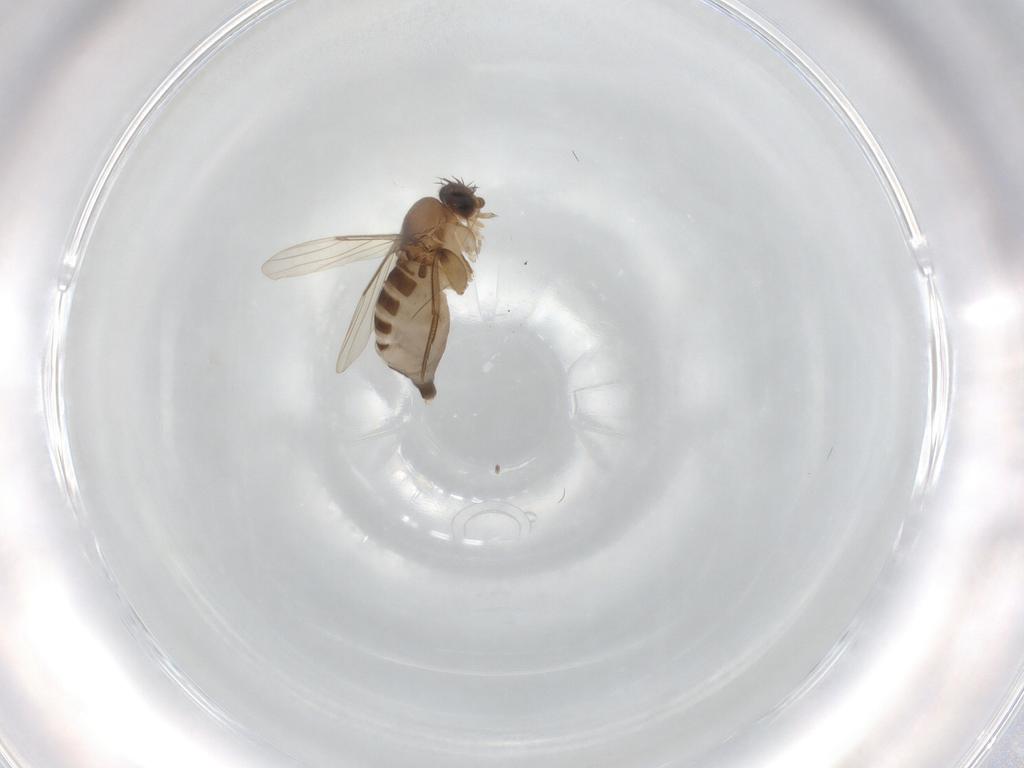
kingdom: Animalia
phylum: Arthropoda
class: Insecta
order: Diptera
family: Phoridae
